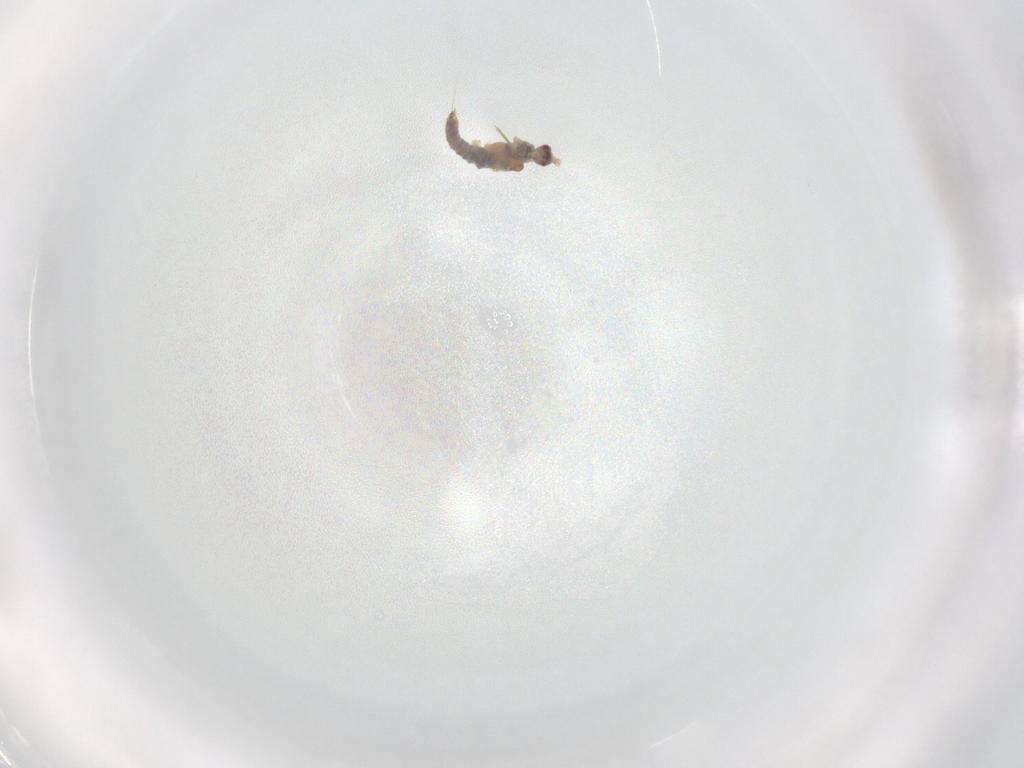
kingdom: Animalia
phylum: Arthropoda
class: Insecta
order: Hemiptera
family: Pseudococcidae
